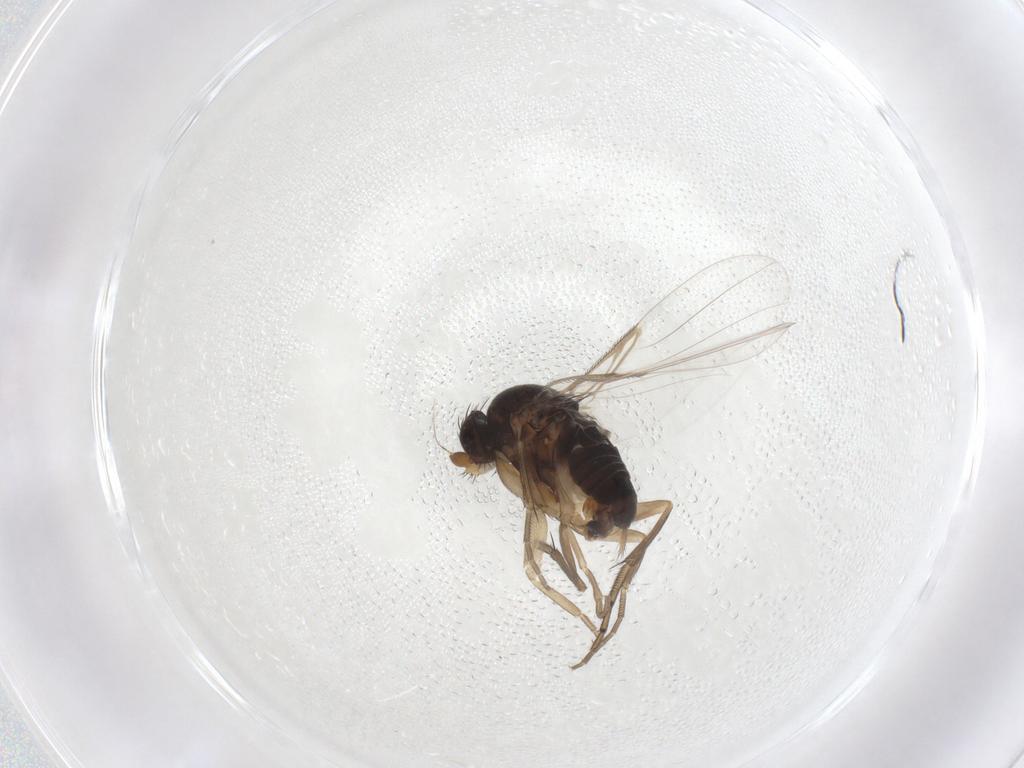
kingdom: Animalia
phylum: Arthropoda
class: Insecta
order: Diptera
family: Phoridae
